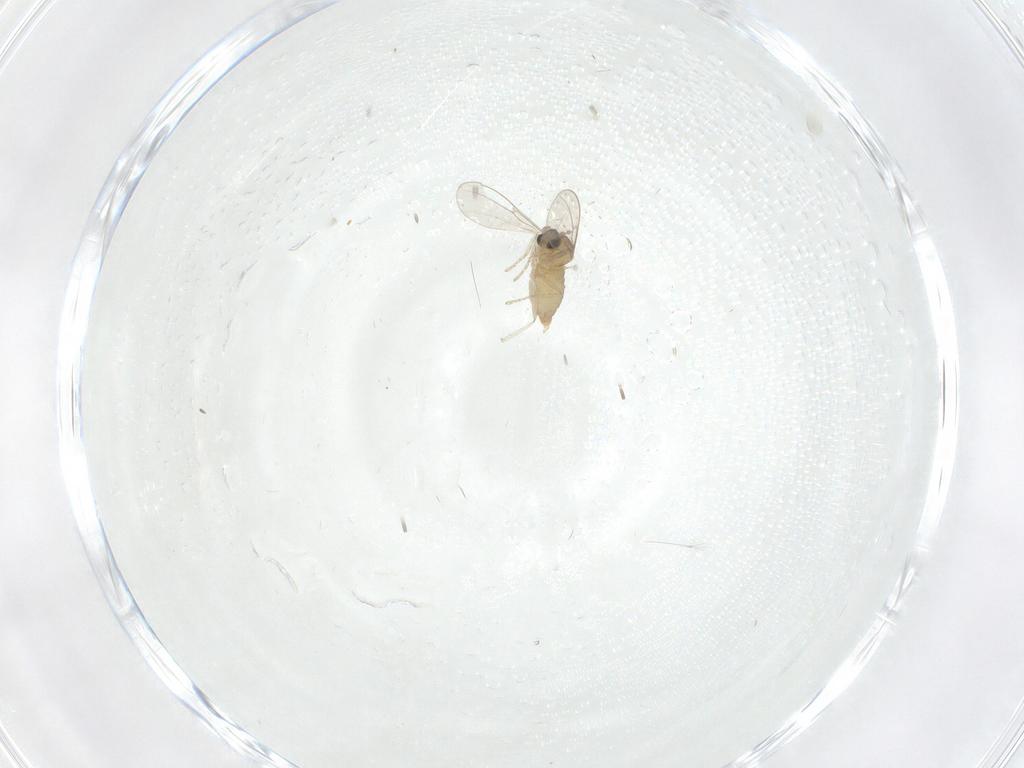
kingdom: Animalia
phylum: Arthropoda
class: Insecta
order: Diptera
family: Cecidomyiidae
